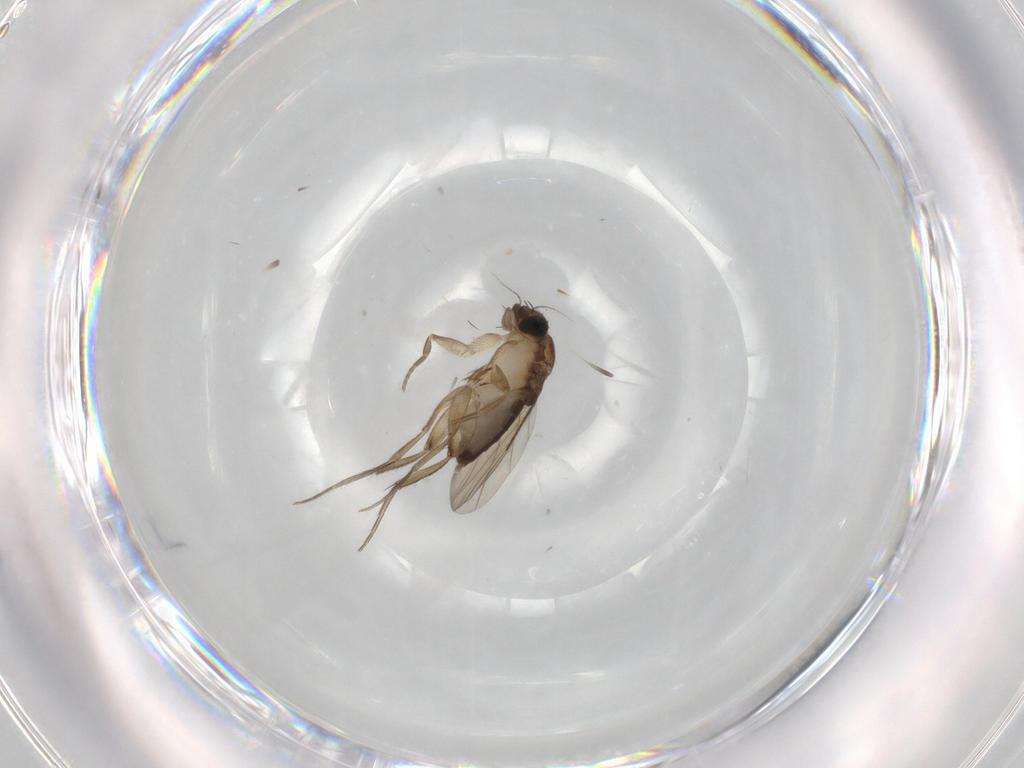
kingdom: Animalia
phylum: Arthropoda
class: Insecta
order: Diptera
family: Phoridae
